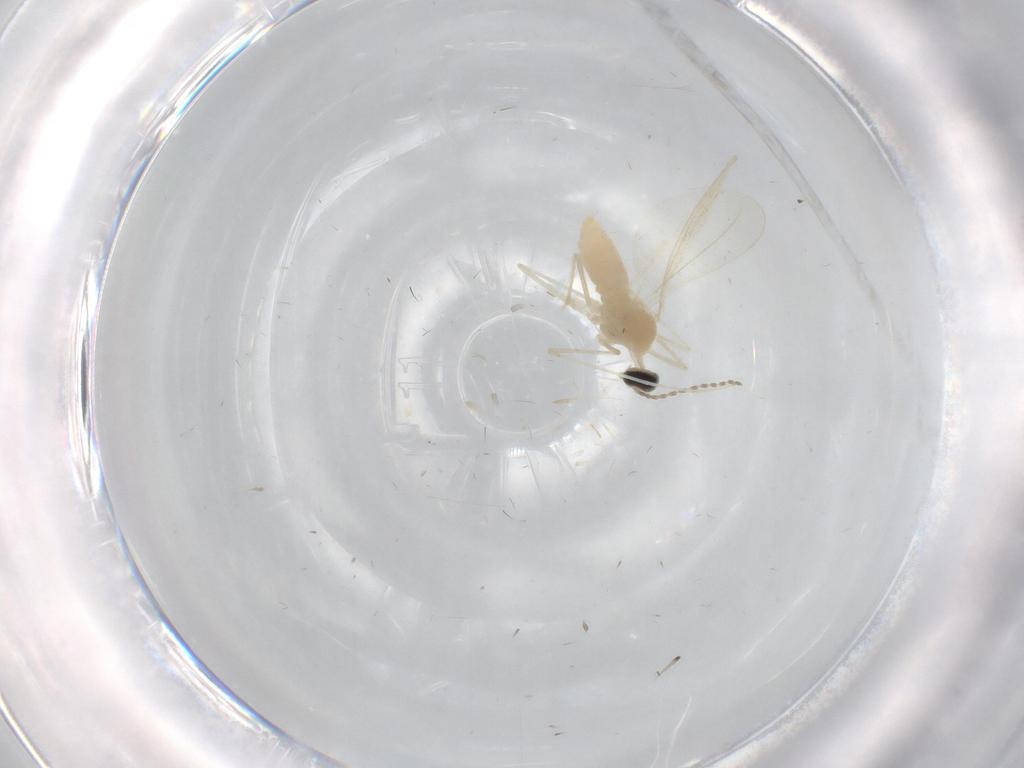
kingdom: Animalia
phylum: Arthropoda
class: Insecta
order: Diptera
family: Cecidomyiidae
